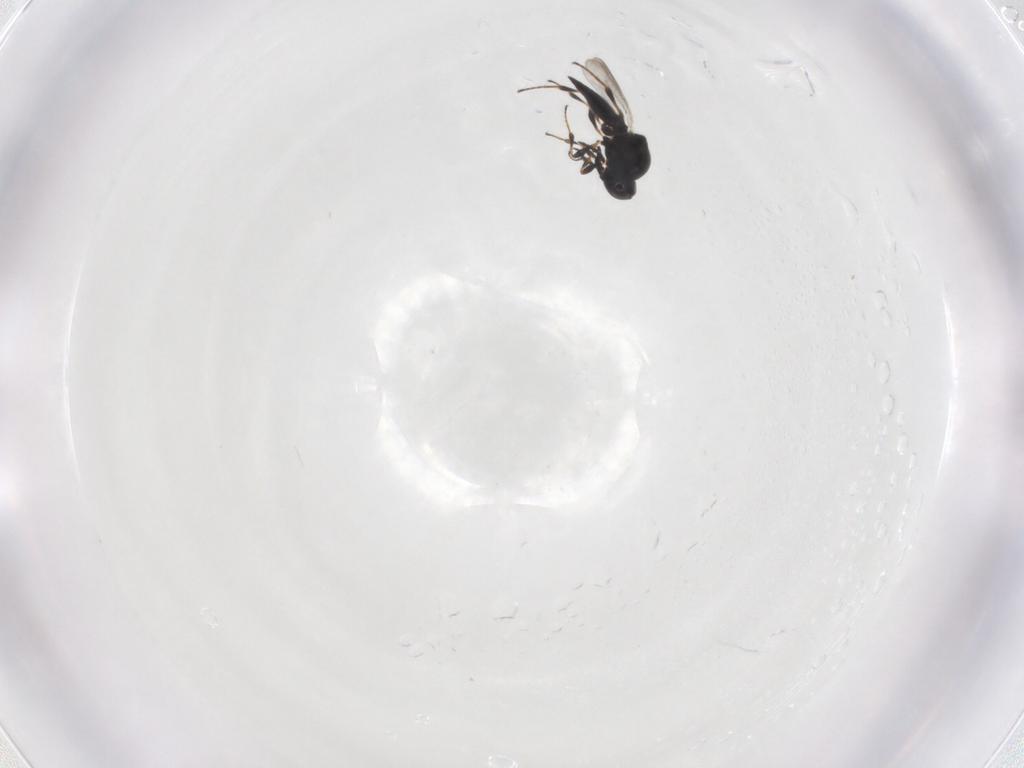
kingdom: Animalia
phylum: Arthropoda
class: Insecta
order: Hymenoptera
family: Platygastridae
